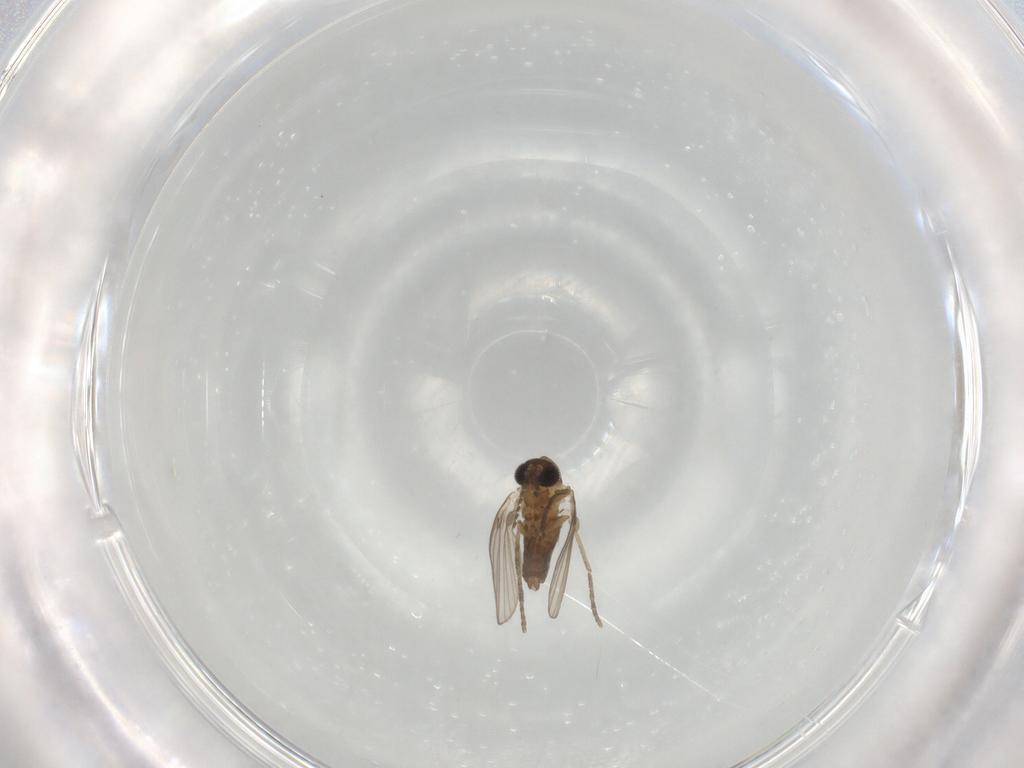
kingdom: Animalia
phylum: Arthropoda
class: Insecta
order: Diptera
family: Psychodidae
